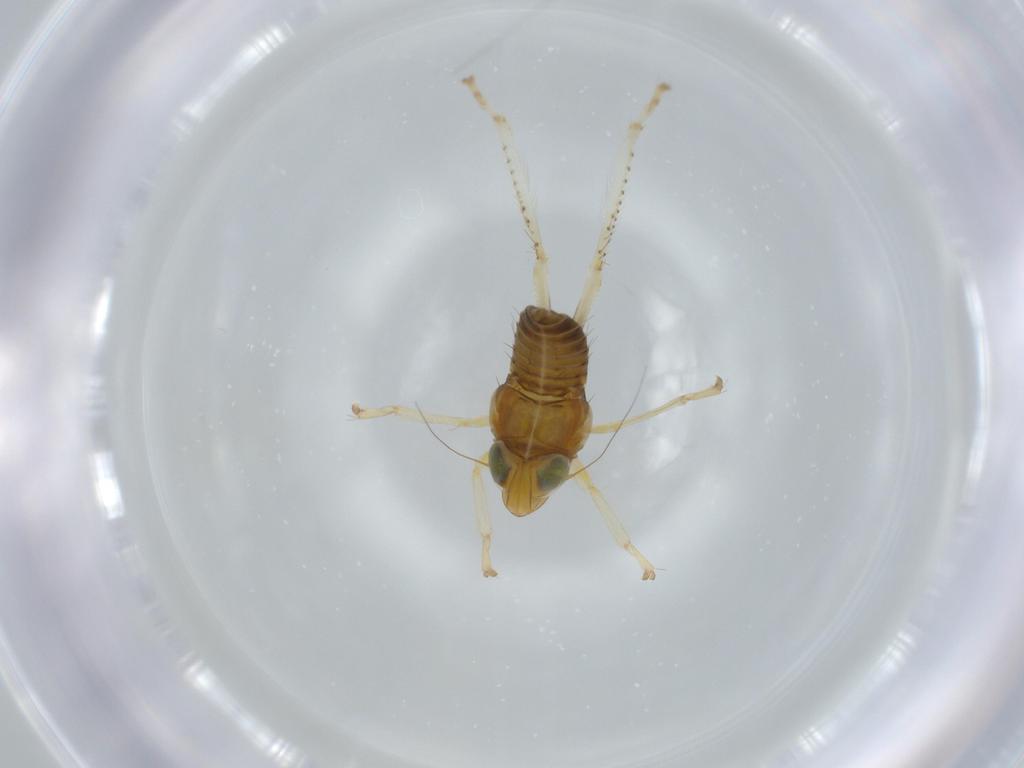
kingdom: Animalia
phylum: Arthropoda
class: Insecta
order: Hemiptera
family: Cicadellidae
